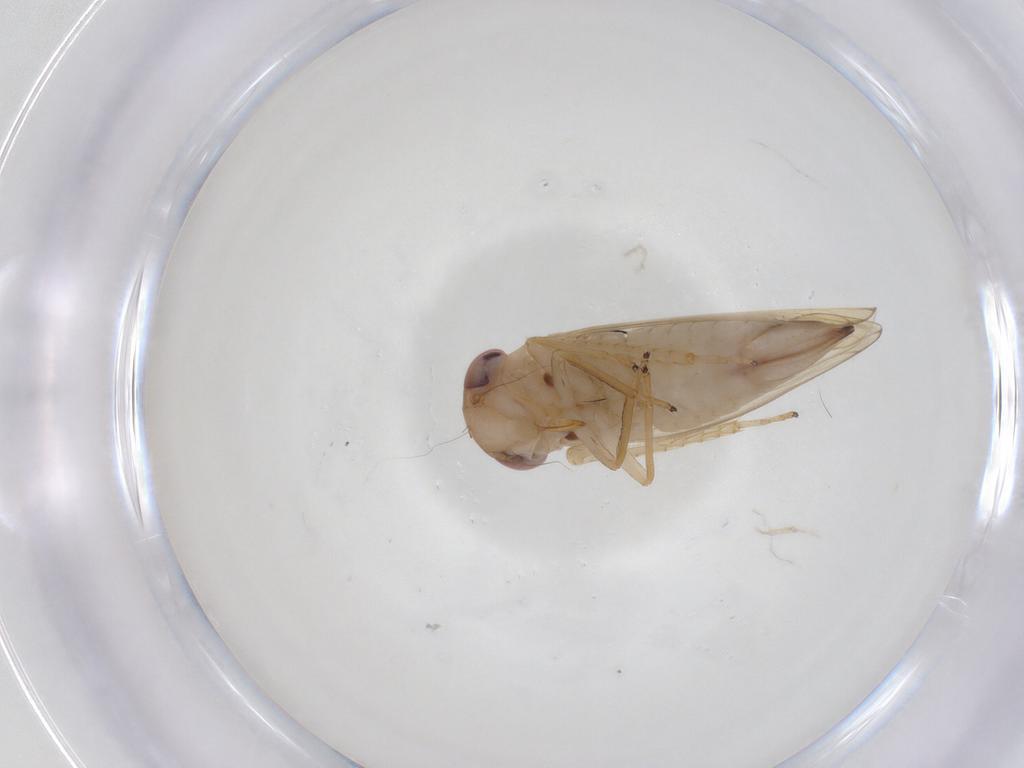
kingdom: Animalia
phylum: Arthropoda
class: Insecta
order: Hemiptera
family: Cicadellidae
